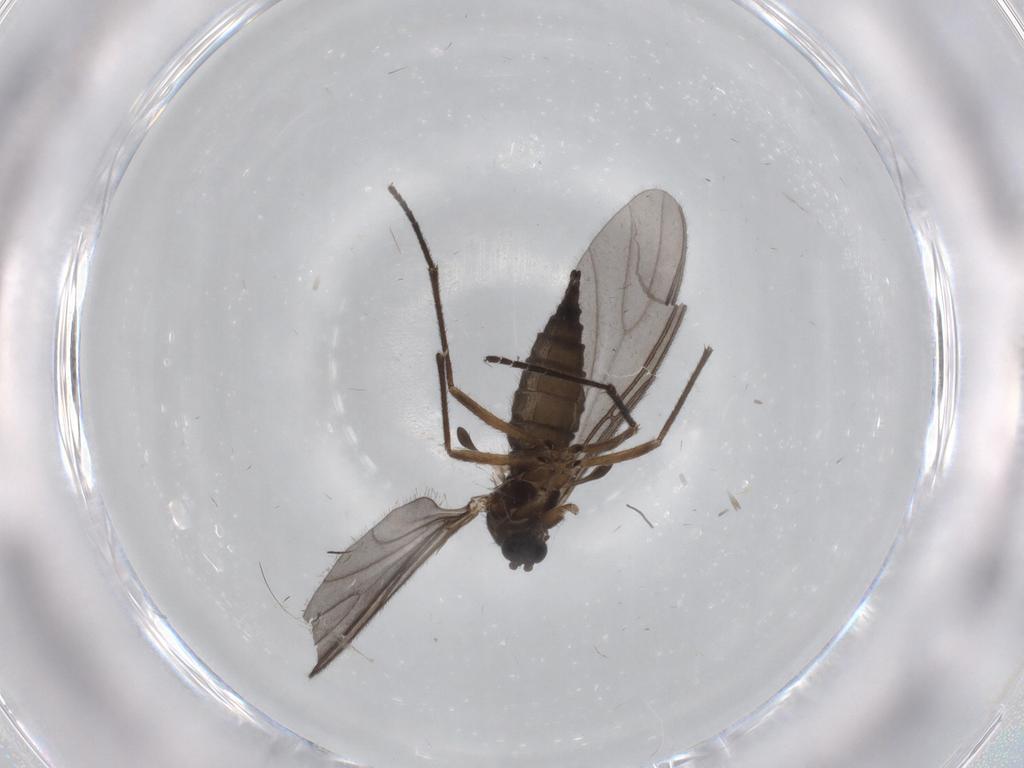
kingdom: Animalia
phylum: Arthropoda
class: Insecta
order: Diptera
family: Sciaridae
